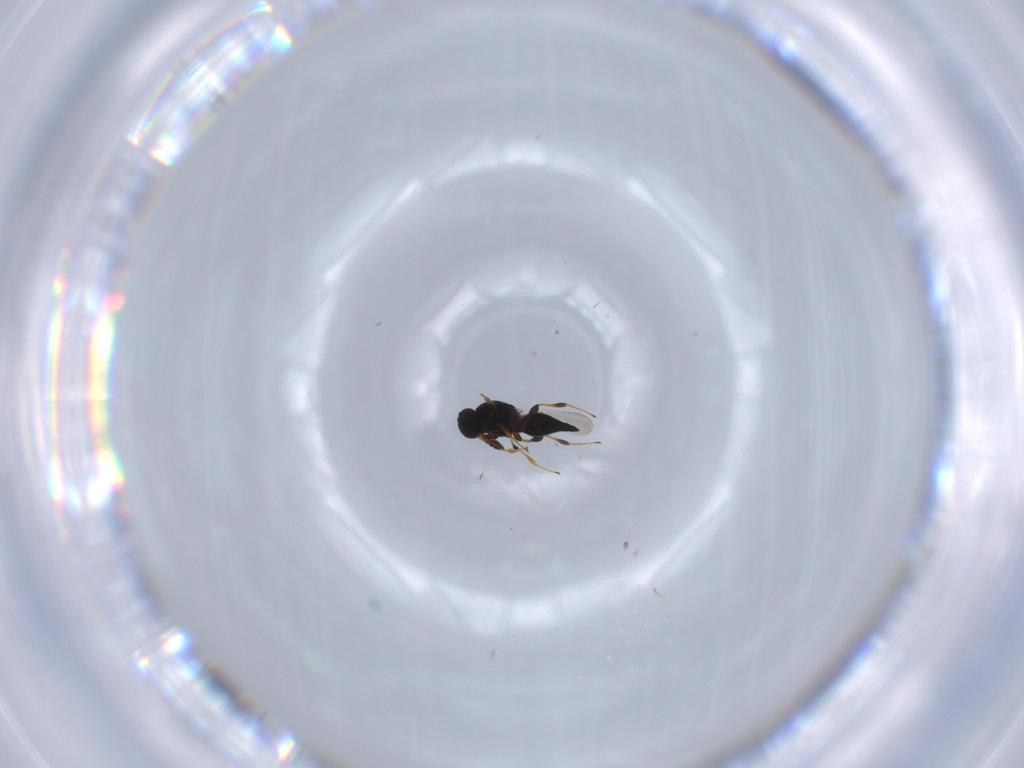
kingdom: Animalia
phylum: Arthropoda
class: Insecta
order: Hymenoptera
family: Platygastridae
